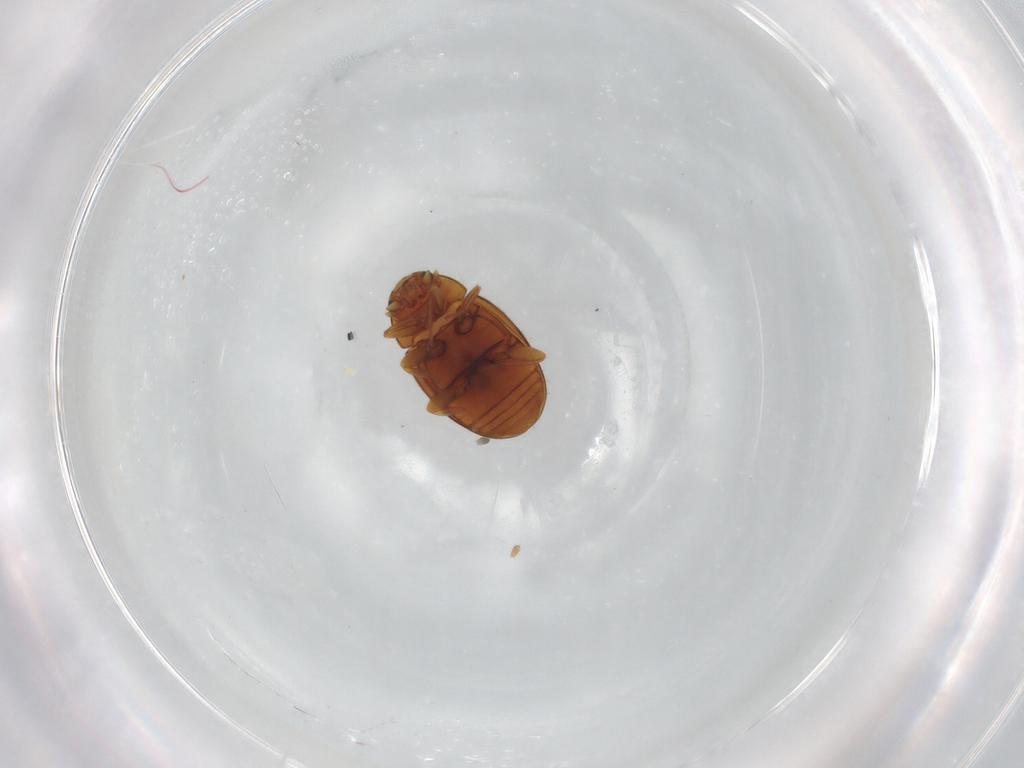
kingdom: Animalia
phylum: Arthropoda
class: Insecta
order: Coleoptera
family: Coccinellidae
